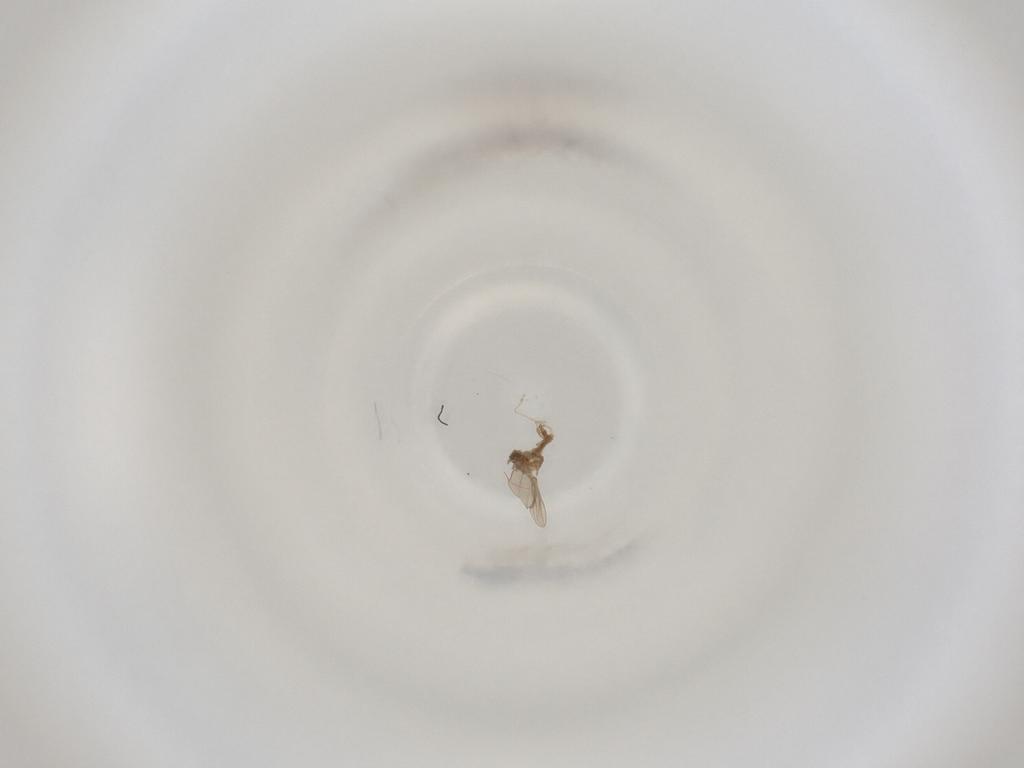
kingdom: Animalia
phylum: Arthropoda
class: Insecta
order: Diptera
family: Cecidomyiidae
